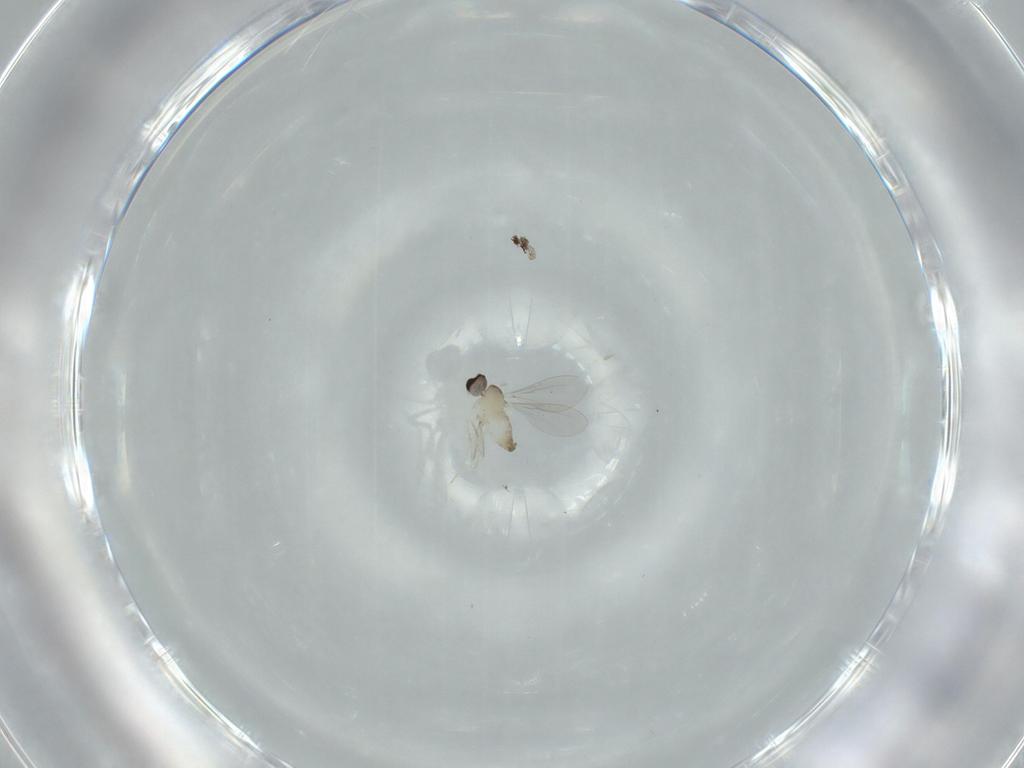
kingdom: Animalia
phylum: Arthropoda
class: Insecta
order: Diptera
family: Cecidomyiidae
